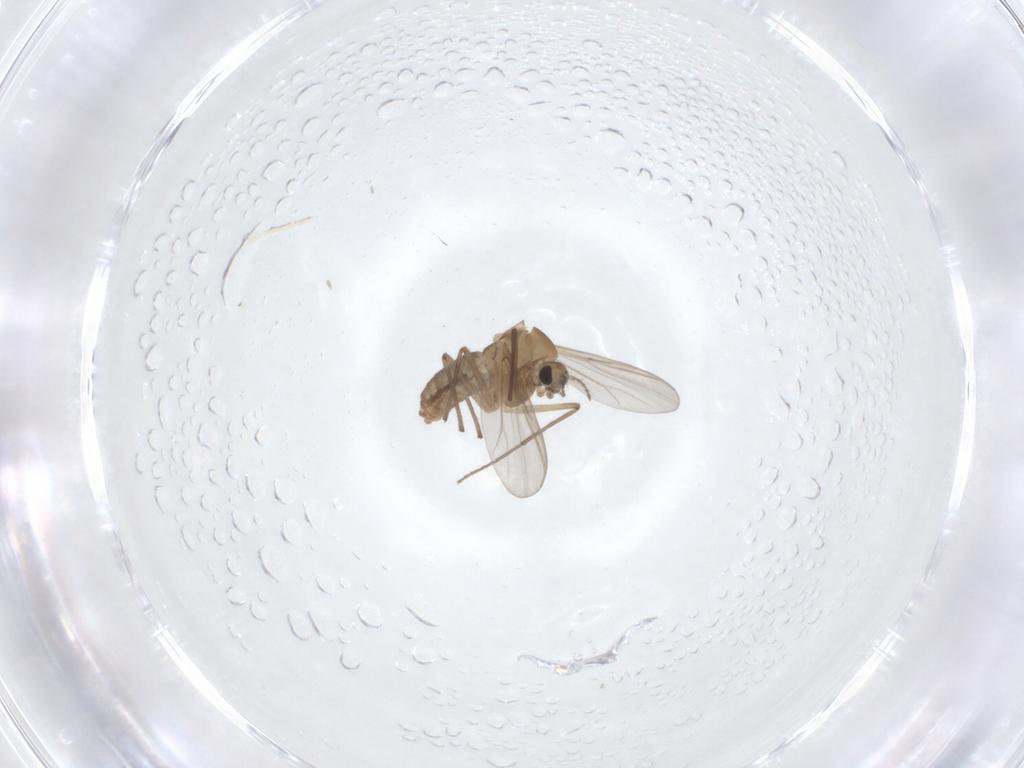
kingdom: Animalia
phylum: Arthropoda
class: Insecta
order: Diptera
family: Chironomidae
